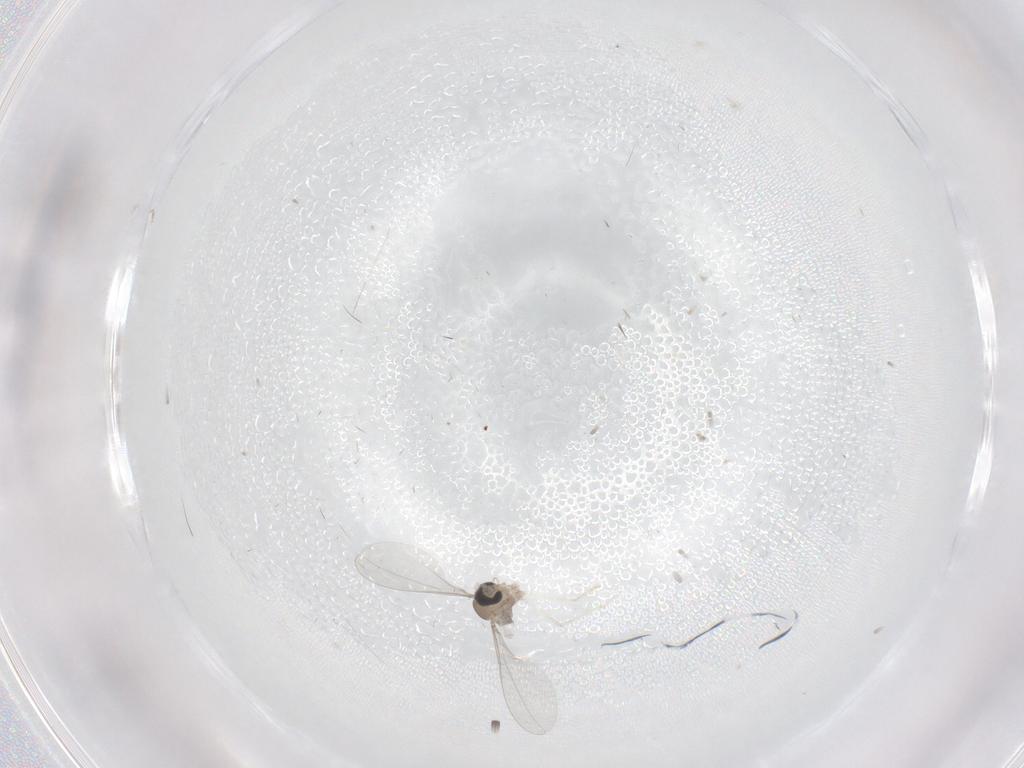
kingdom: Animalia
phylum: Arthropoda
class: Insecta
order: Diptera
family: Cecidomyiidae
